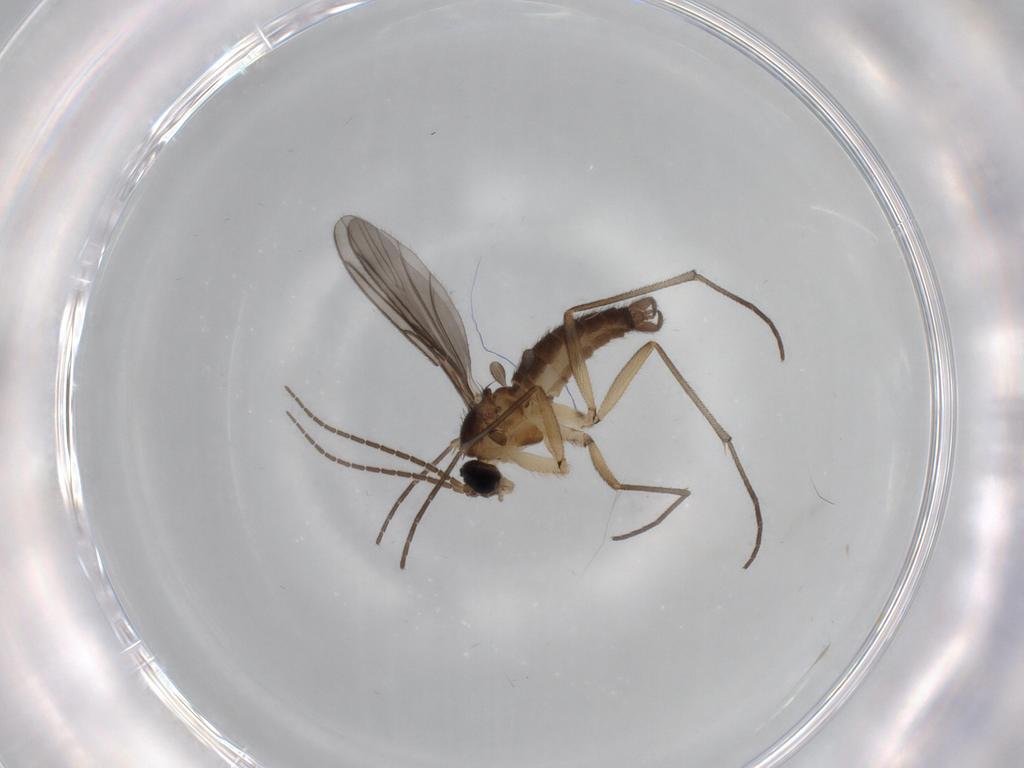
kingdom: Animalia
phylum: Arthropoda
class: Insecta
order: Diptera
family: Sciaridae
